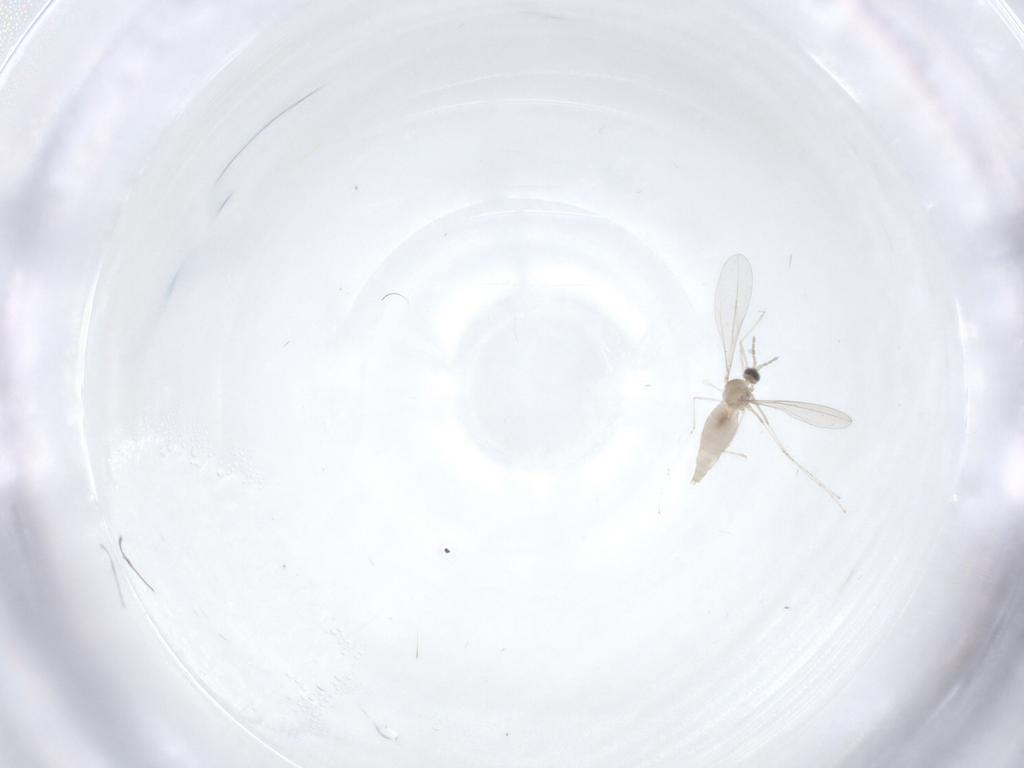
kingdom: Animalia
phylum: Arthropoda
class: Insecta
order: Diptera
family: Cecidomyiidae
